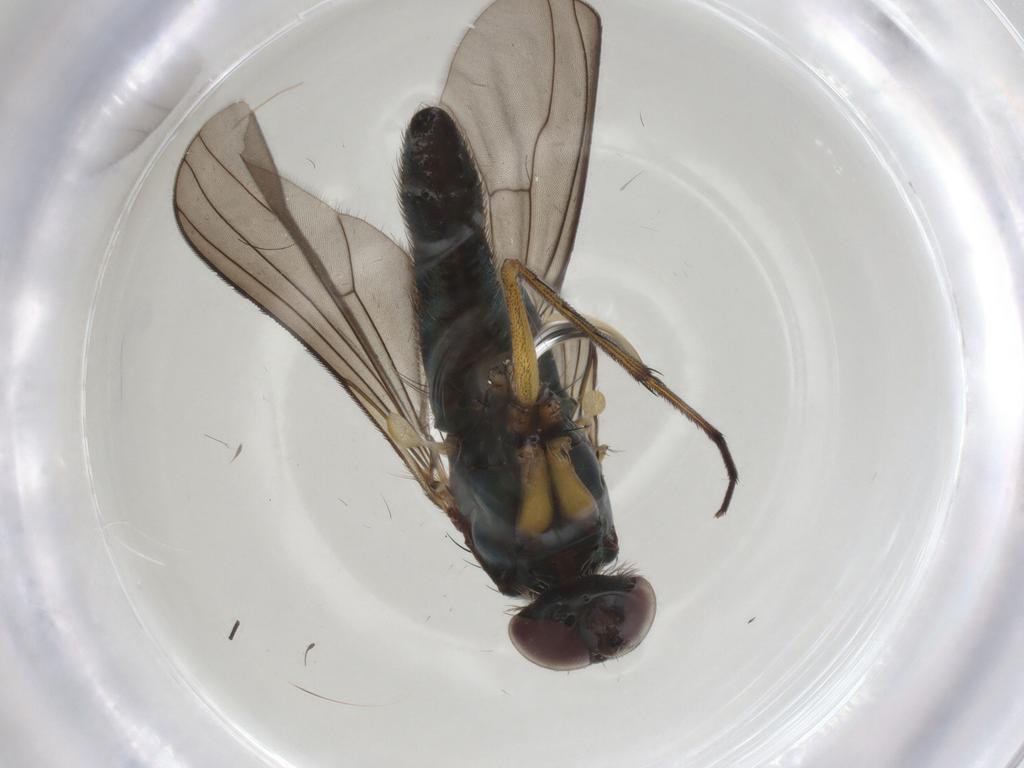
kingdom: Animalia
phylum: Arthropoda
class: Insecta
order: Diptera
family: Dolichopodidae
